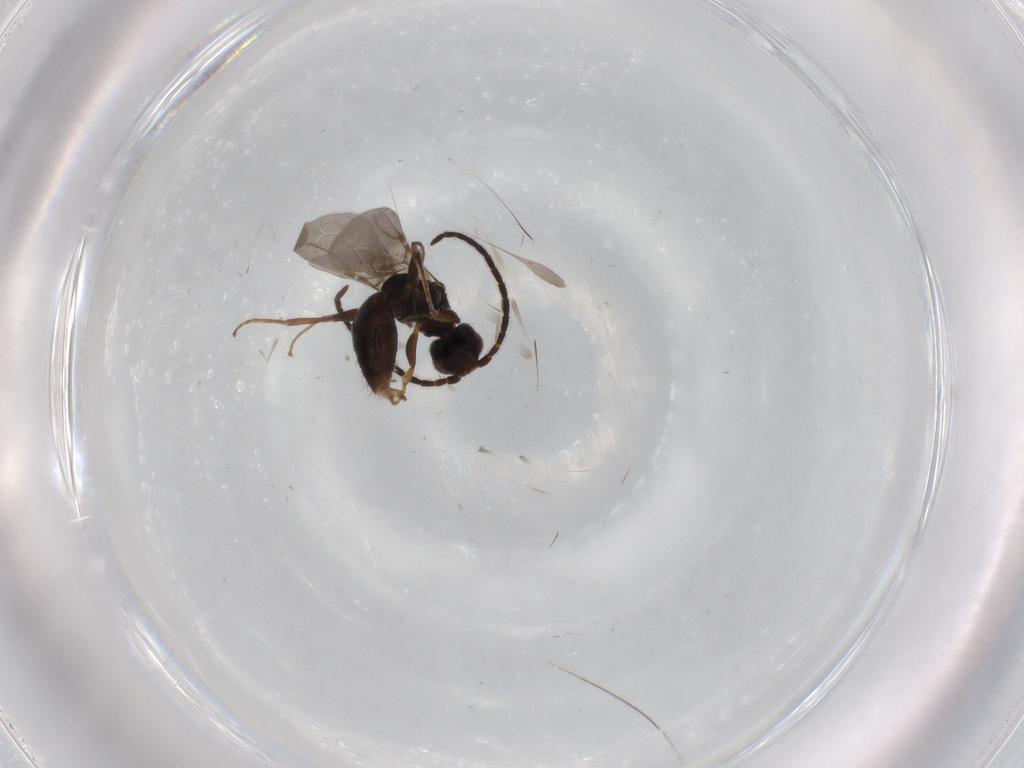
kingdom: Animalia
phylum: Arthropoda
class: Insecta
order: Hymenoptera
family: Bethylidae
